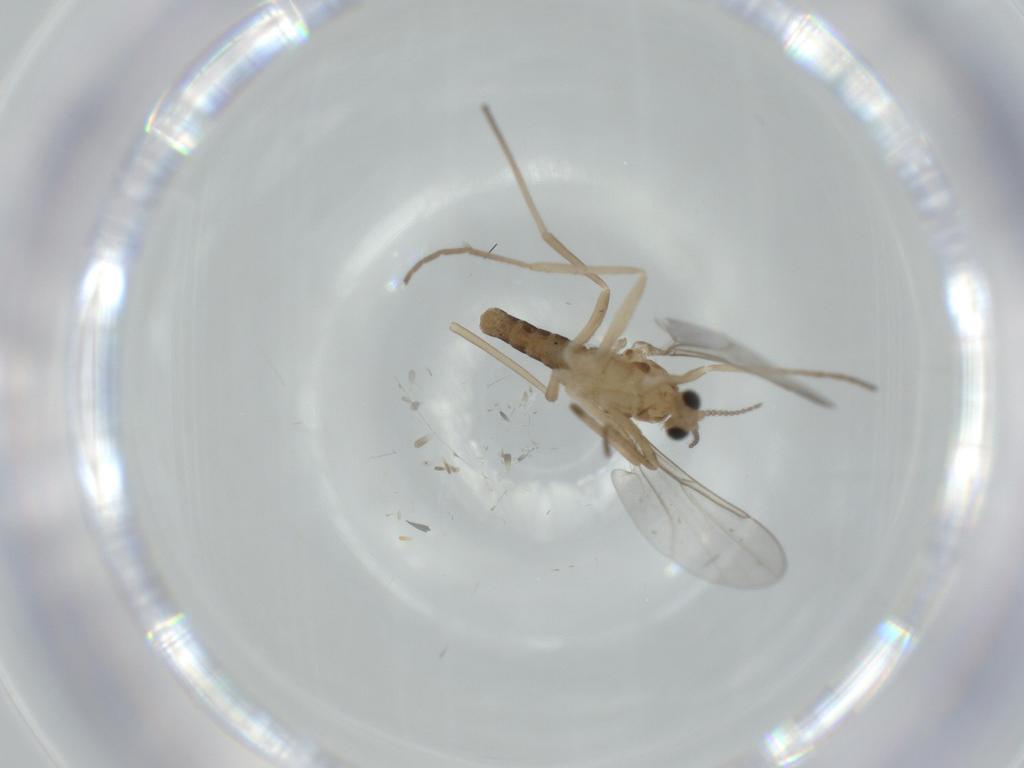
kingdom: Animalia
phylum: Arthropoda
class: Insecta
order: Diptera
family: Cecidomyiidae
